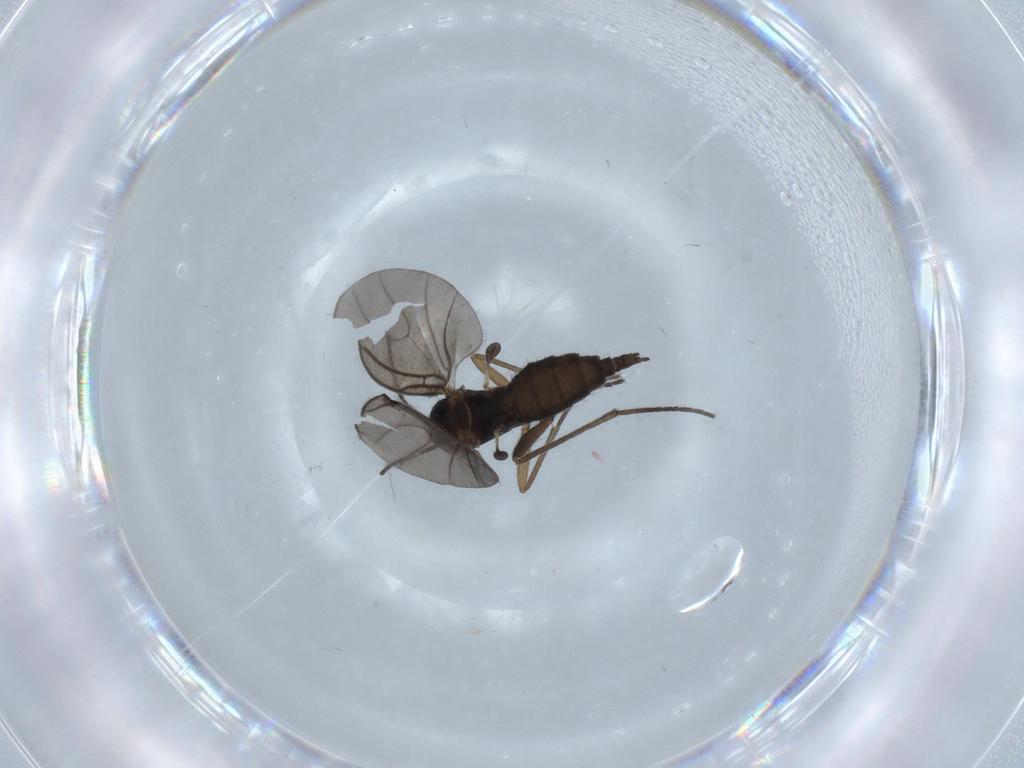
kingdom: Animalia
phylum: Arthropoda
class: Insecta
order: Diptera
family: Sciaridae
